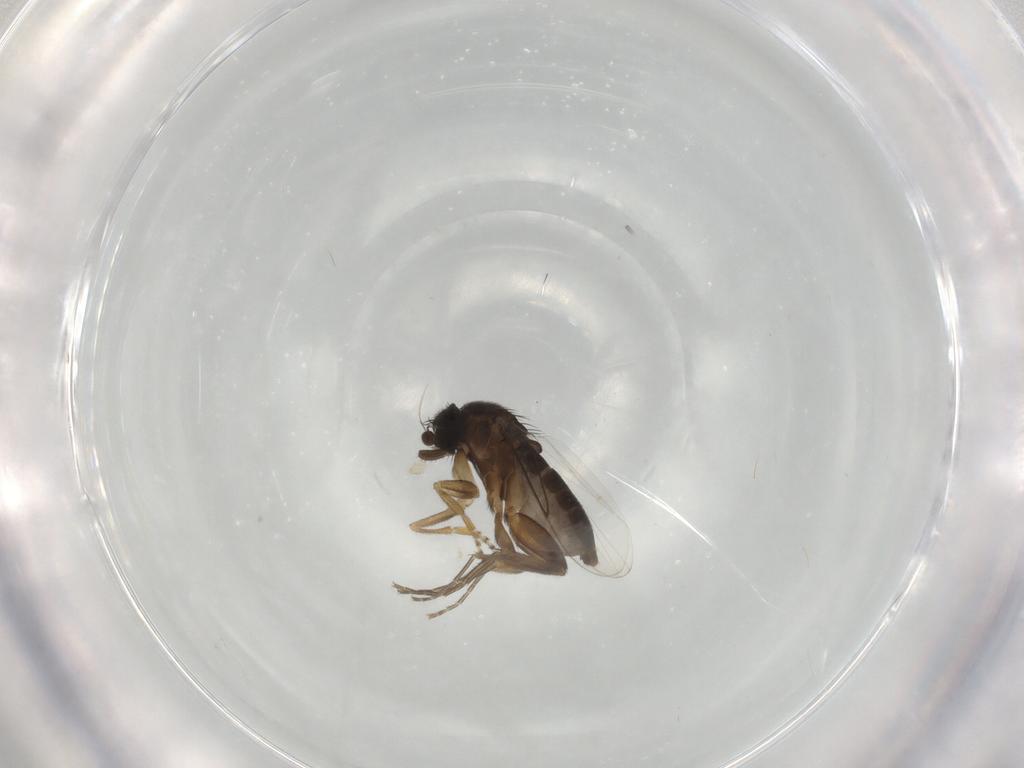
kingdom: Animalia
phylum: Arthropoda
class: Insecta
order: Diptera
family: Phoridae
